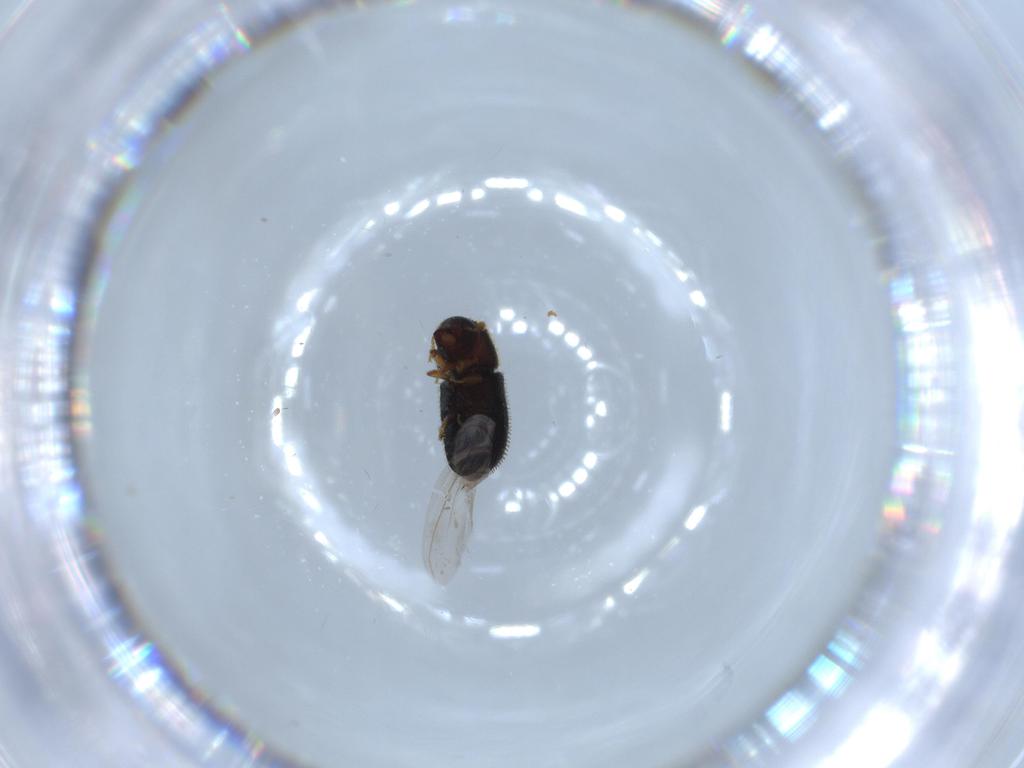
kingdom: Animalia
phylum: Arthropoda
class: Insecta
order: Coleoptera
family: Curculionidae
